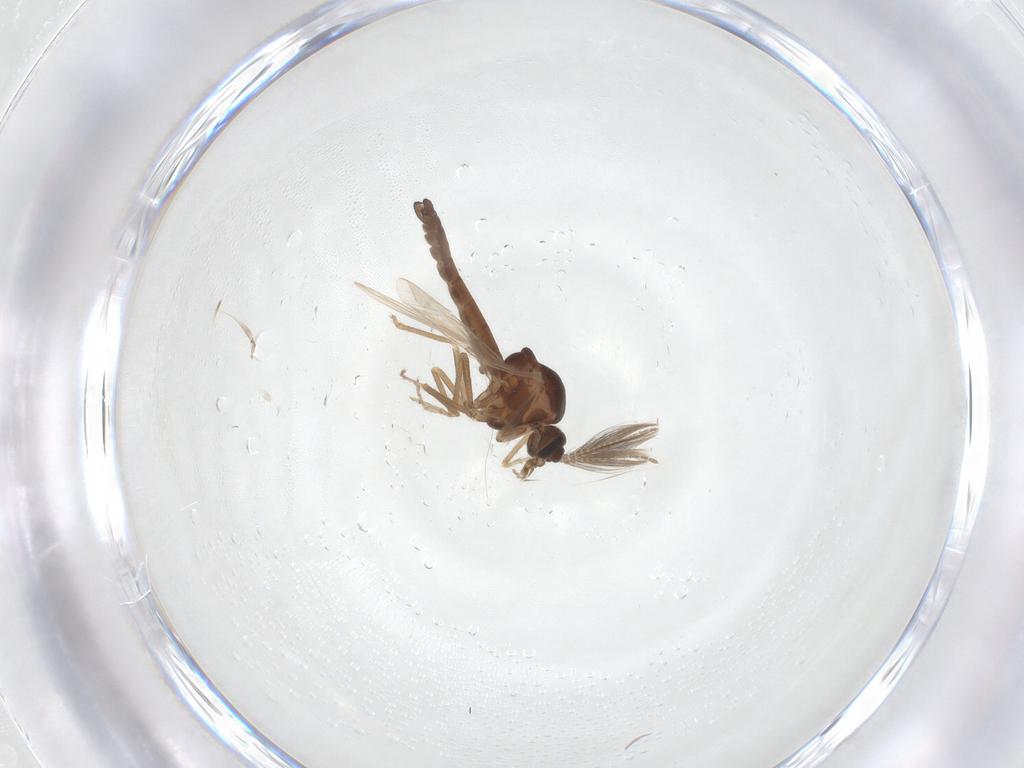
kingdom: Animalia
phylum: Arthropoda
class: Insecta
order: Diptera
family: Ceratopogonidae
